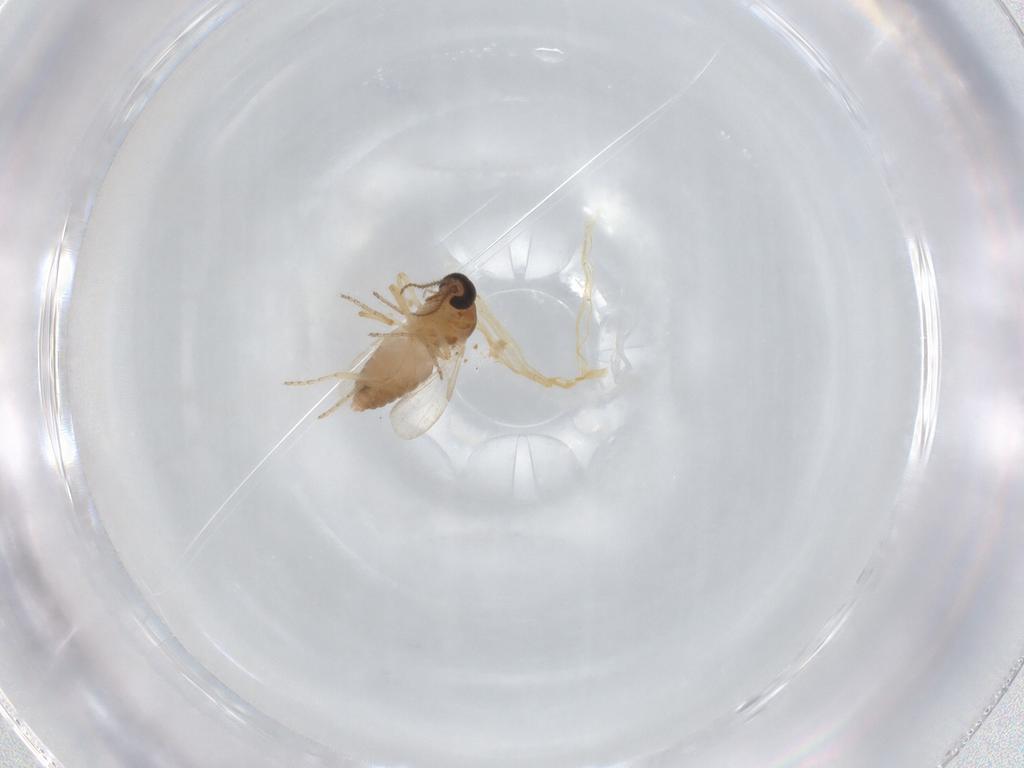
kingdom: Animalia
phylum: Arthropoda
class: Insecta
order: Diptera
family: Ceratopogonidae
